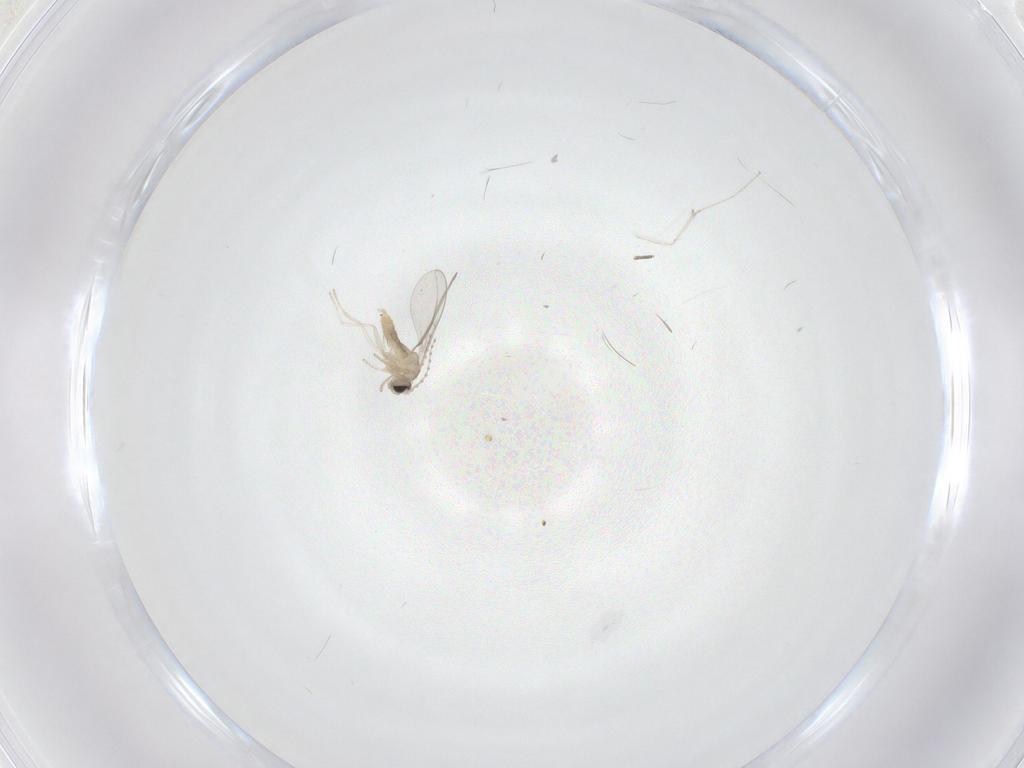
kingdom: Animalia
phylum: Arthropoda
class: Insecta
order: Diptera
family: Cecidomyiidae
